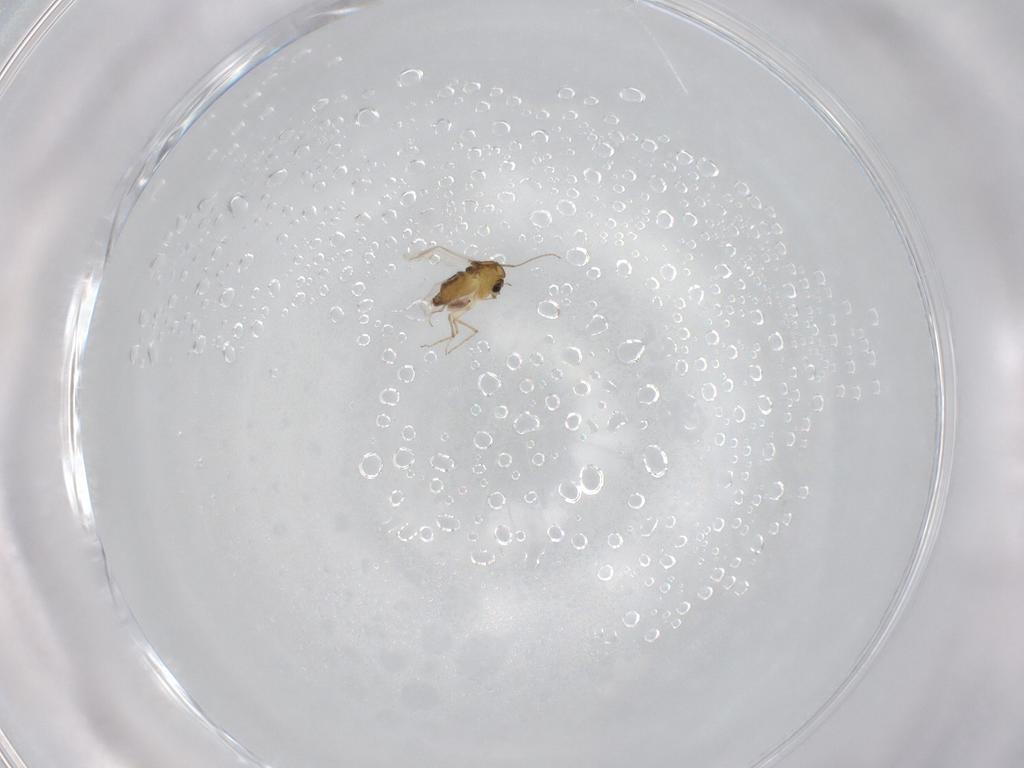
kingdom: Animalia
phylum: Arthropoda
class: Insecta
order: Diptera
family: Chironomidae
